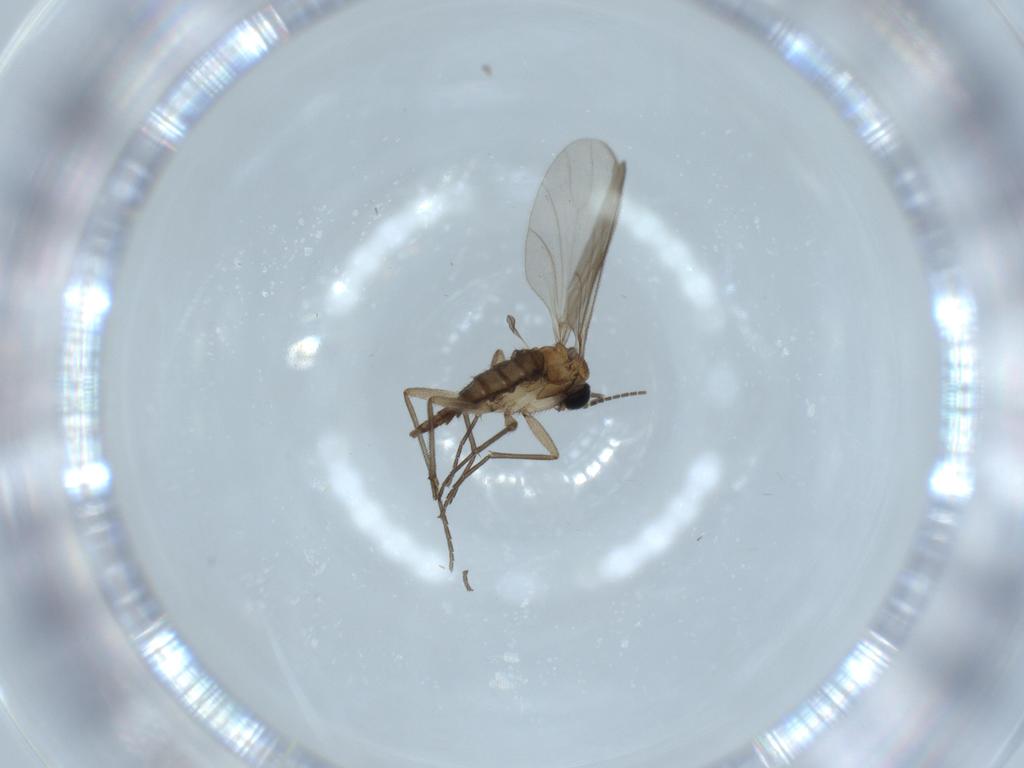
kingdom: Animalia
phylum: Arthropoda
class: Insecta
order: Diptera
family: Sciaridae
